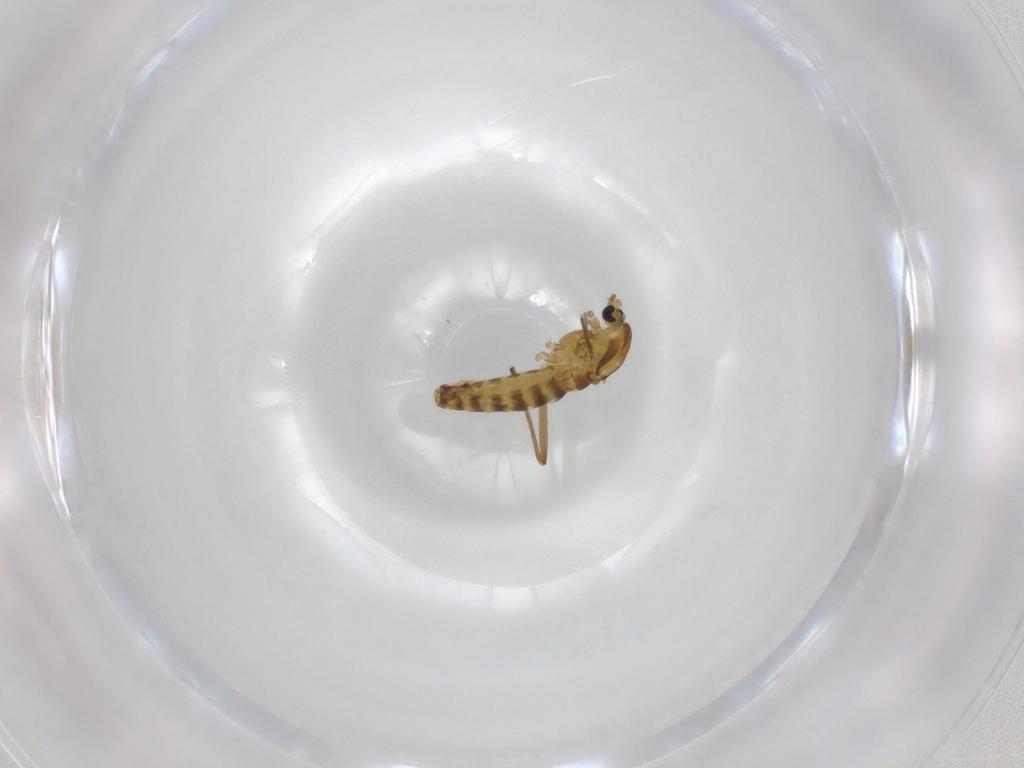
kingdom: Animalia
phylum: Arthropoda
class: Insecta
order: Diptera
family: Chironomidae
